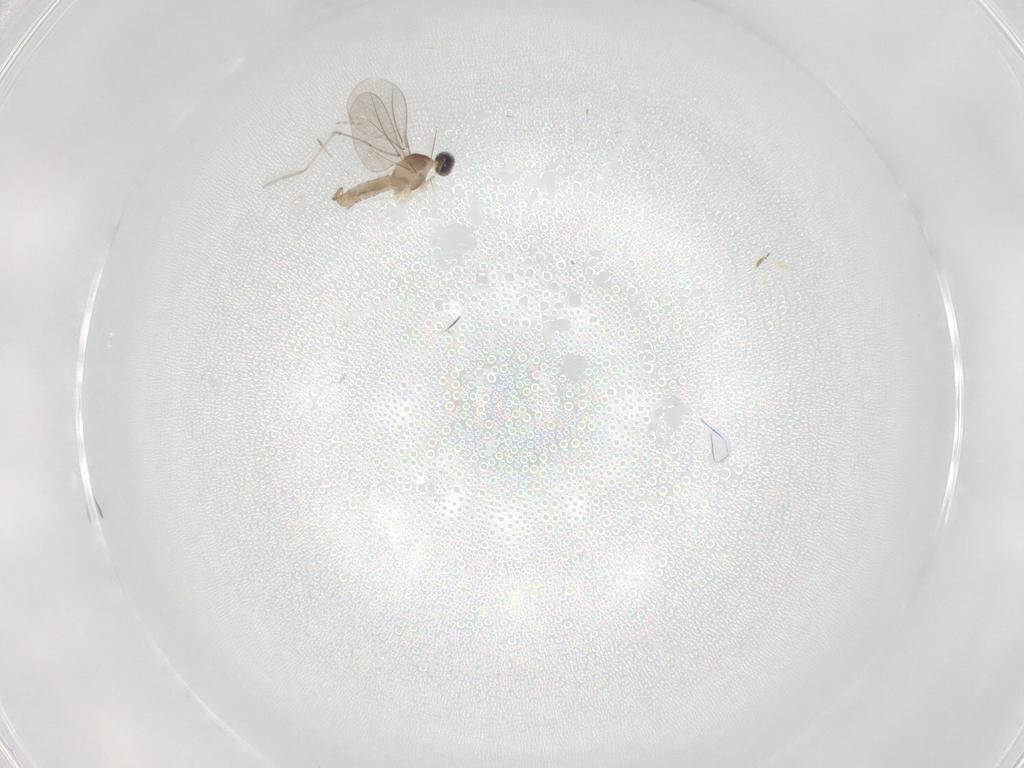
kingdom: Animalia
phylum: Arthropoda
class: Insecta
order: Diptera
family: Cecidomyiidae
